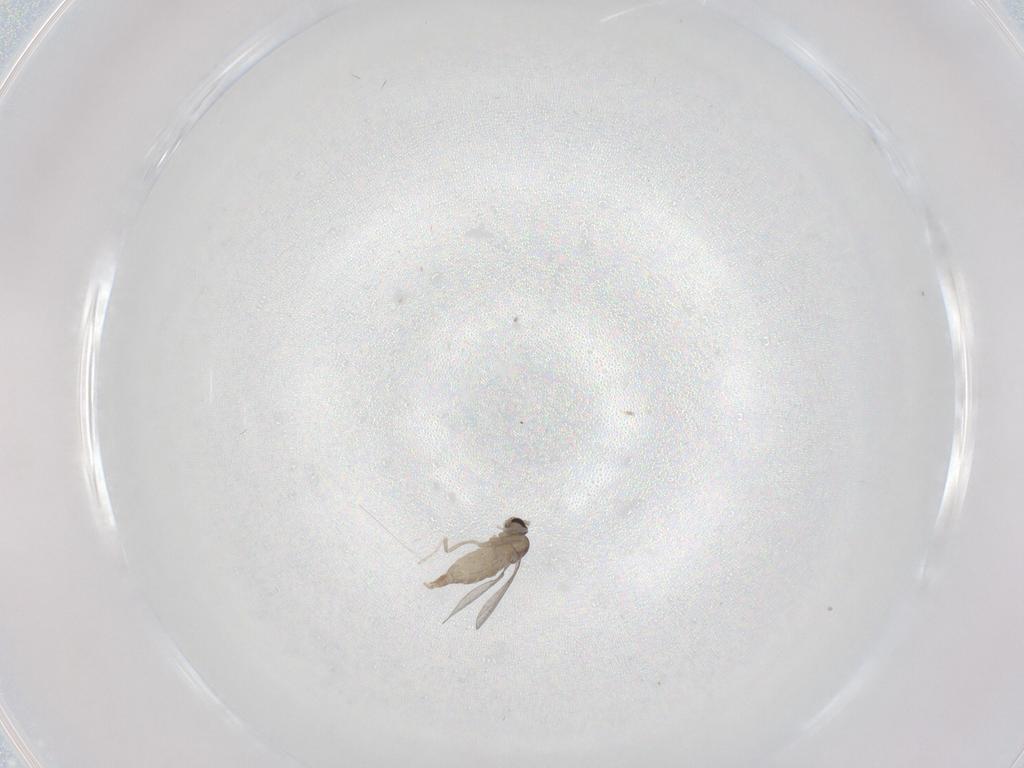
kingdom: Animalia
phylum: Arthropoda
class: Insecta
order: Diptera
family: Cecidomyiidae
